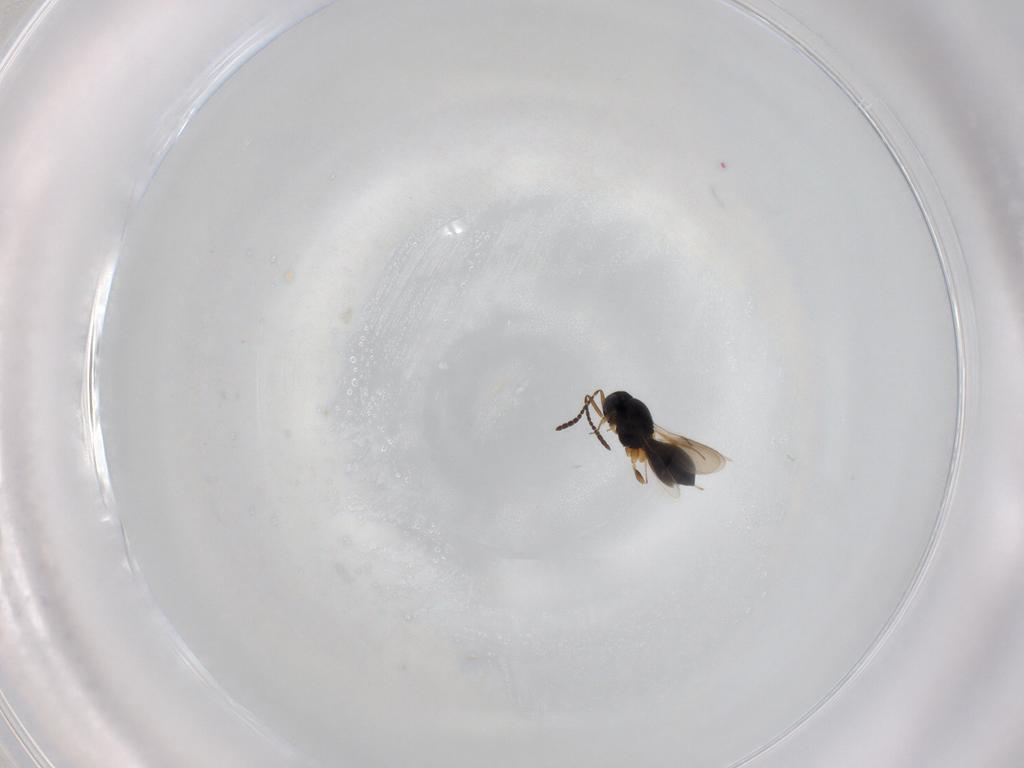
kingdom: Animalia
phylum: Arthropoda
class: Insecta
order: Hymenoptera
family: Scelionidae
